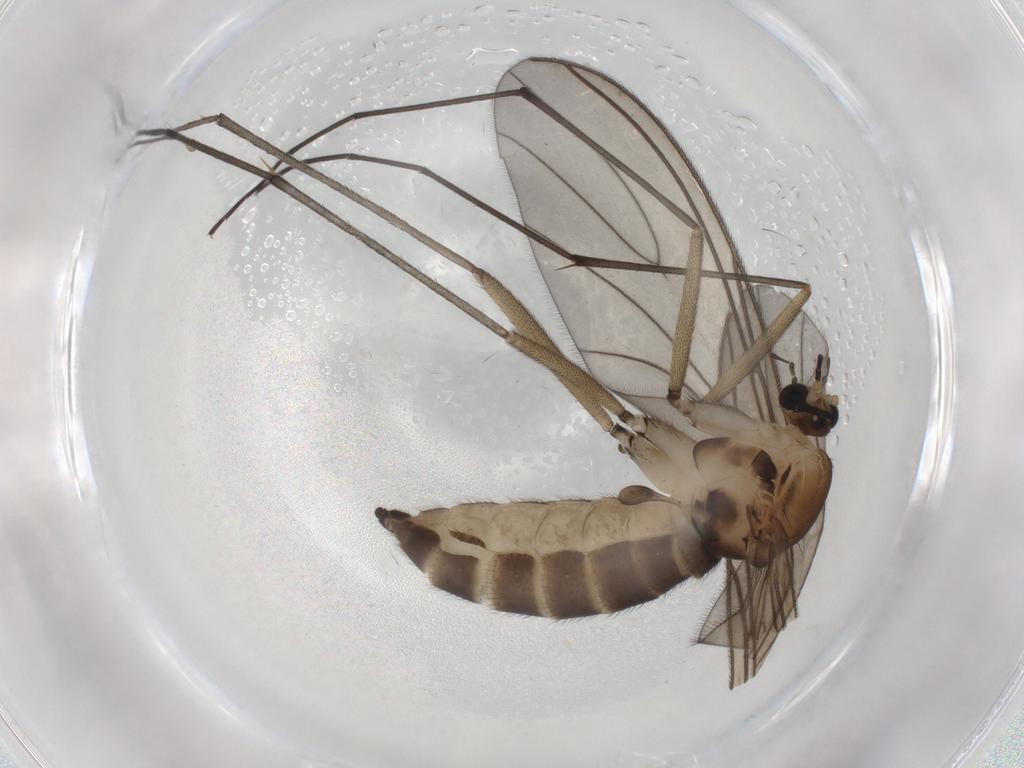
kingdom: Animalia
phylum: Arthropoda
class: Insecta
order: Diptera
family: Sciaridae
